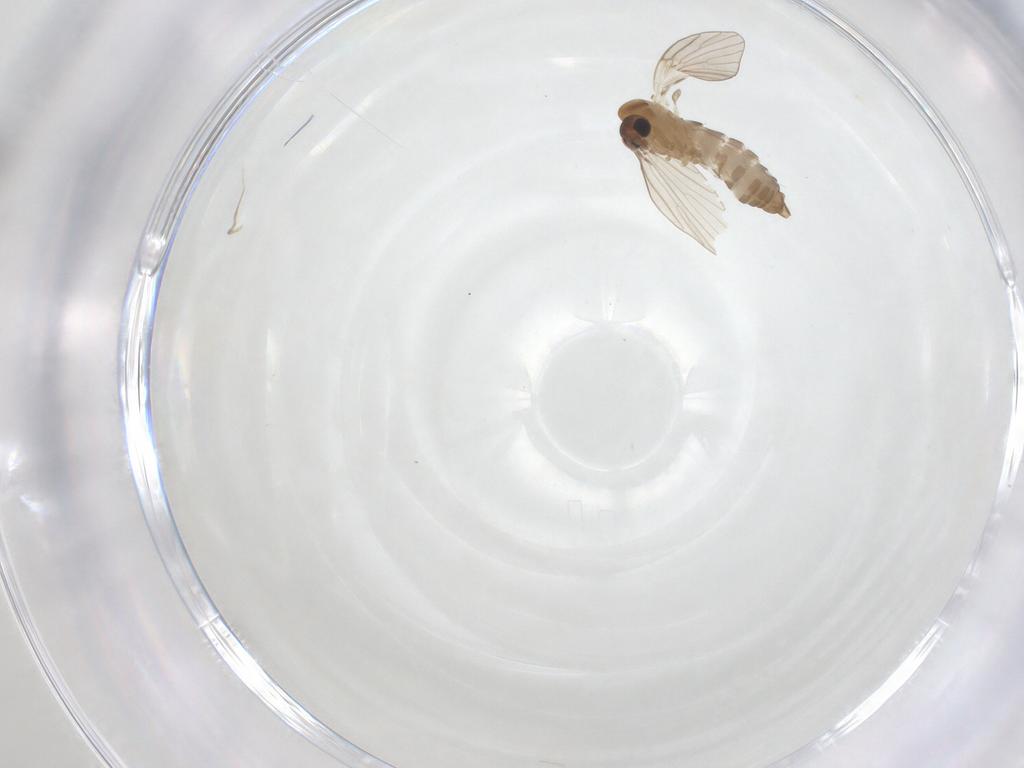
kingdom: Animalia
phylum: Arthropoda
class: Insecta
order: Diptera
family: Psychodidae
